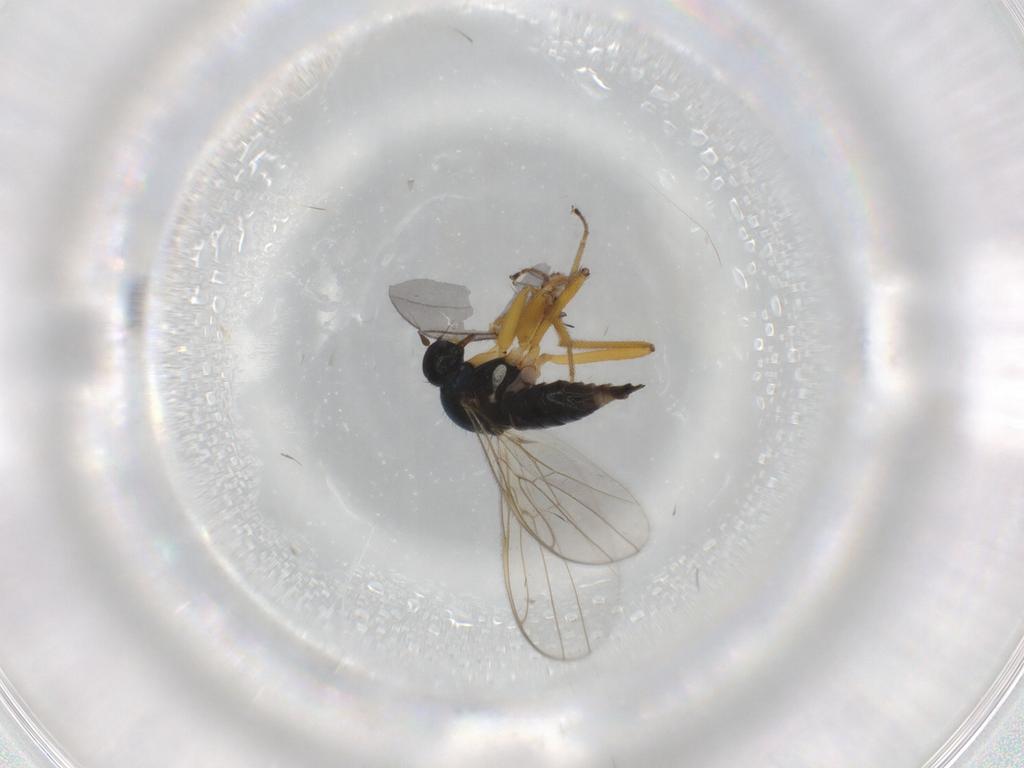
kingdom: Animalia
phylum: Arthropoda
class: Insecta
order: Diptera
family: Hybotidae
